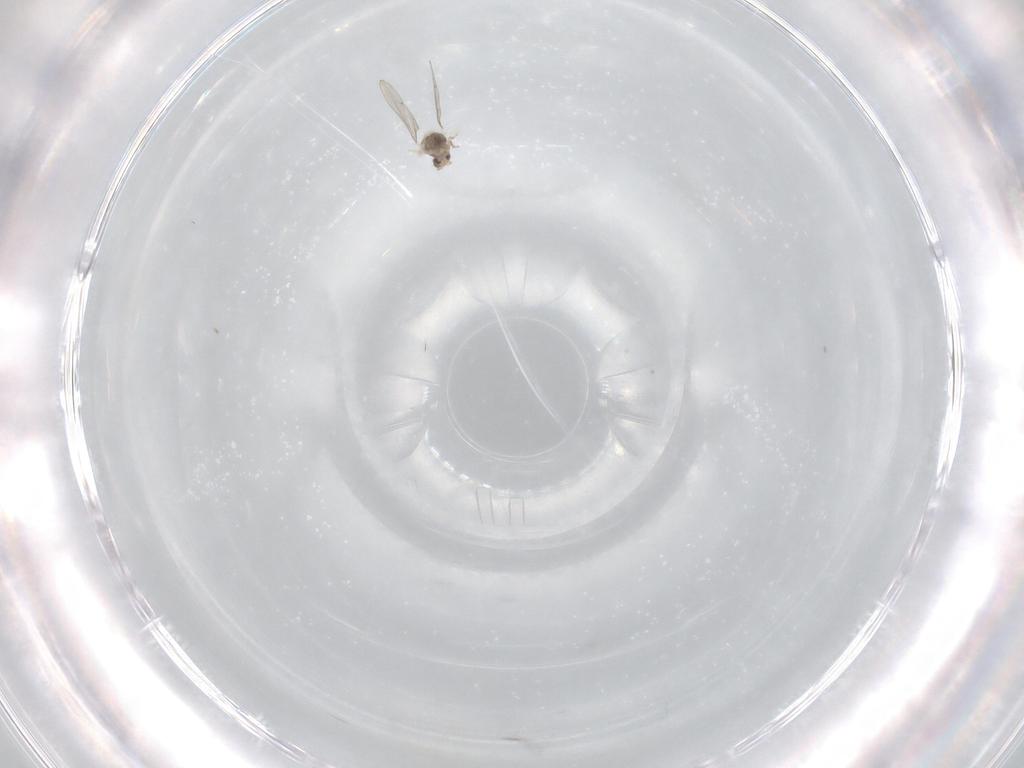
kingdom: Animalia
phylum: Arthropoda
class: Insecta
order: Diptera
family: Cecidomyiidae
